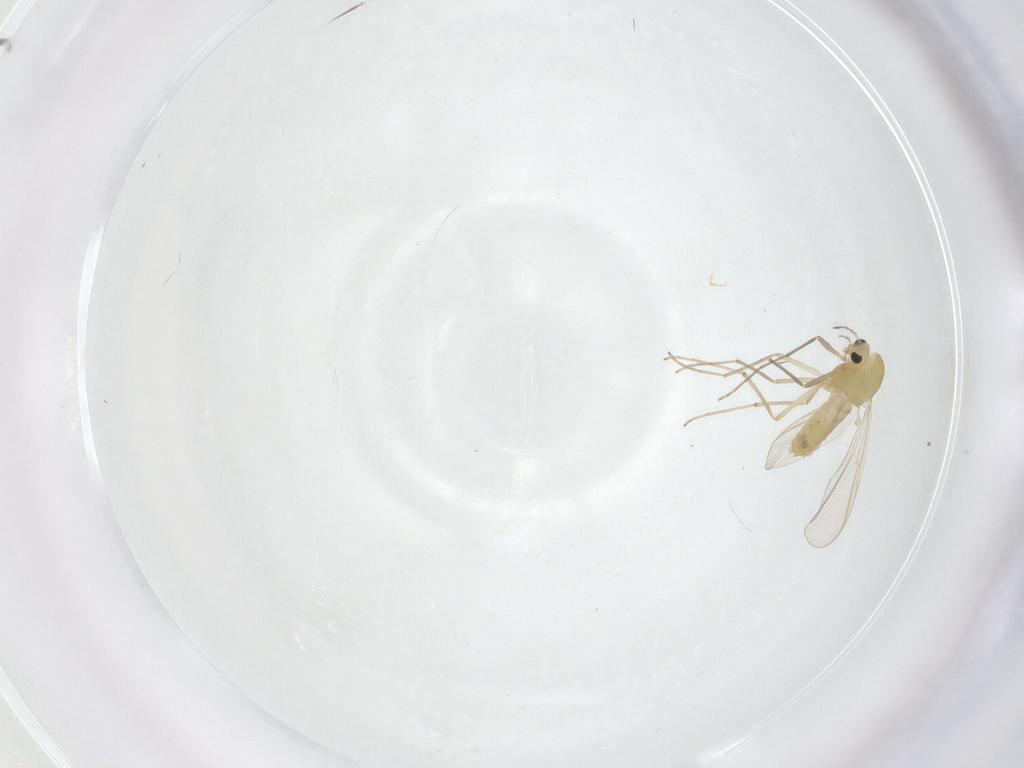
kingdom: Animalia
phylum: Arthropoda
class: Insecta
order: Diptera
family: Chironomidae
